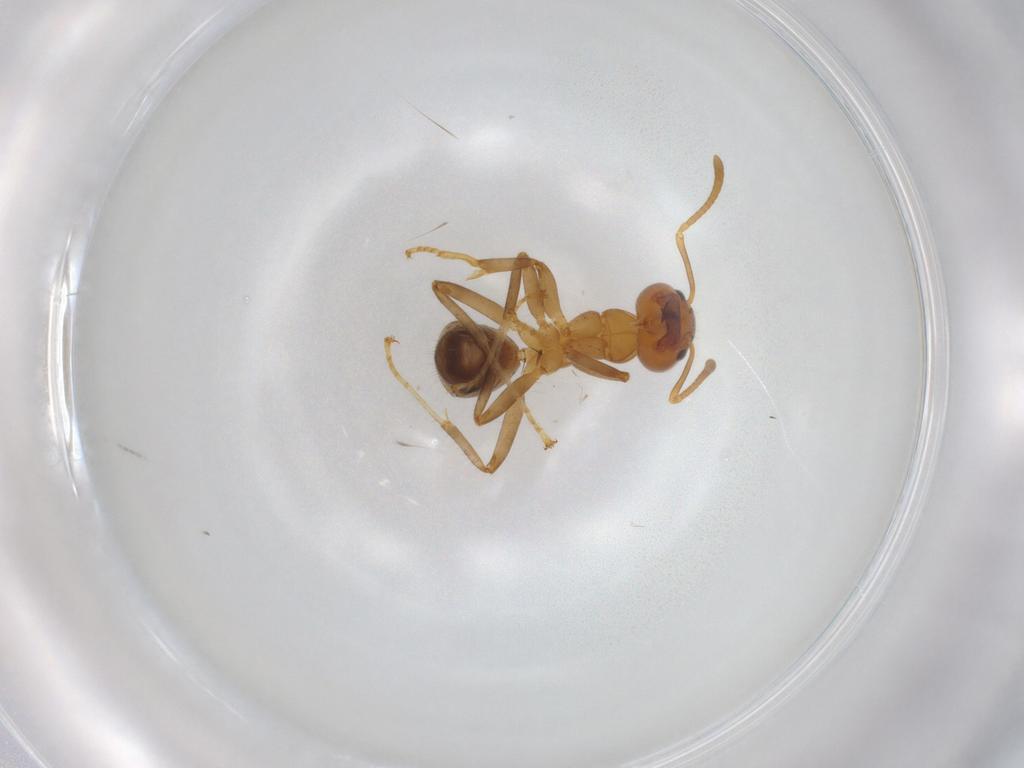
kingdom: Animalia
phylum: Arthropoda
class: Insecta
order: Hymenoptera
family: Formicidae
